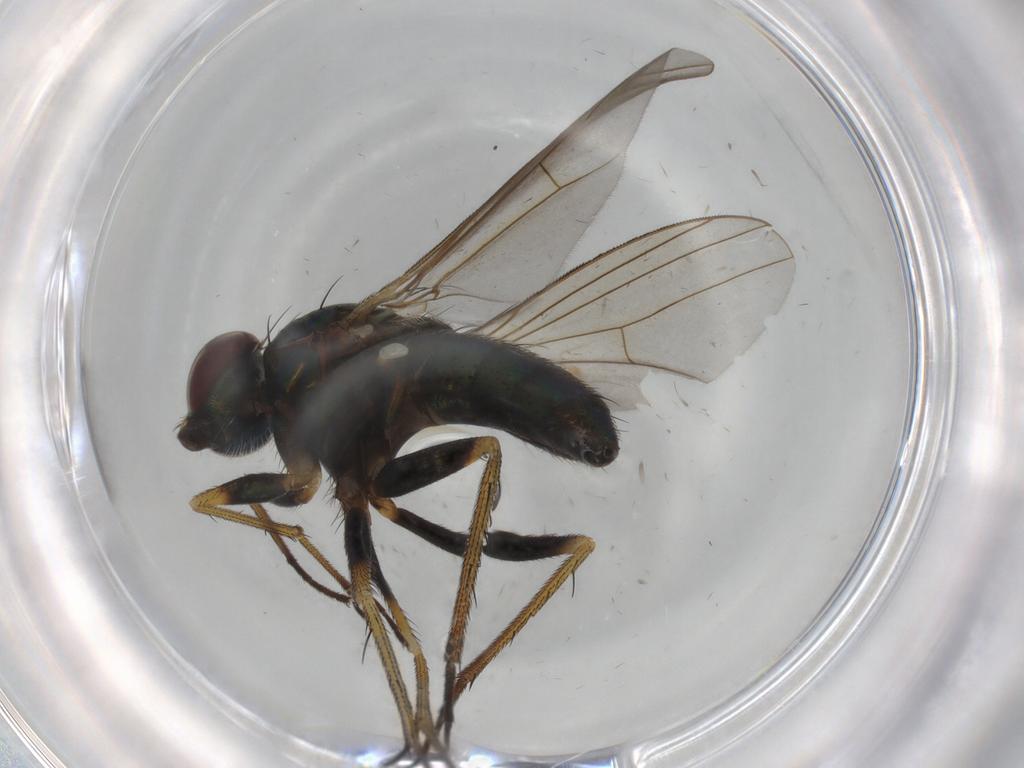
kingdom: Animalia
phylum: Arthropoda
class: Insecta
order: Diptera
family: Dolichopodidae
